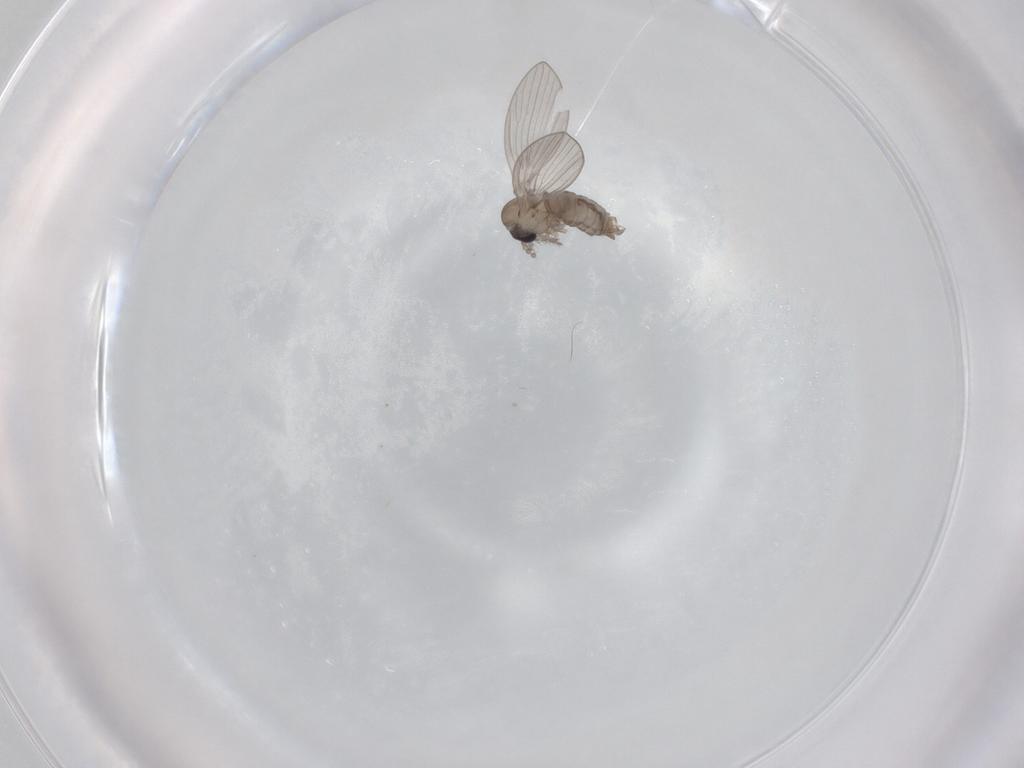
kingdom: Animalia
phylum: Arthropoda
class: Insecta
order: Diptera
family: Psychodidae
